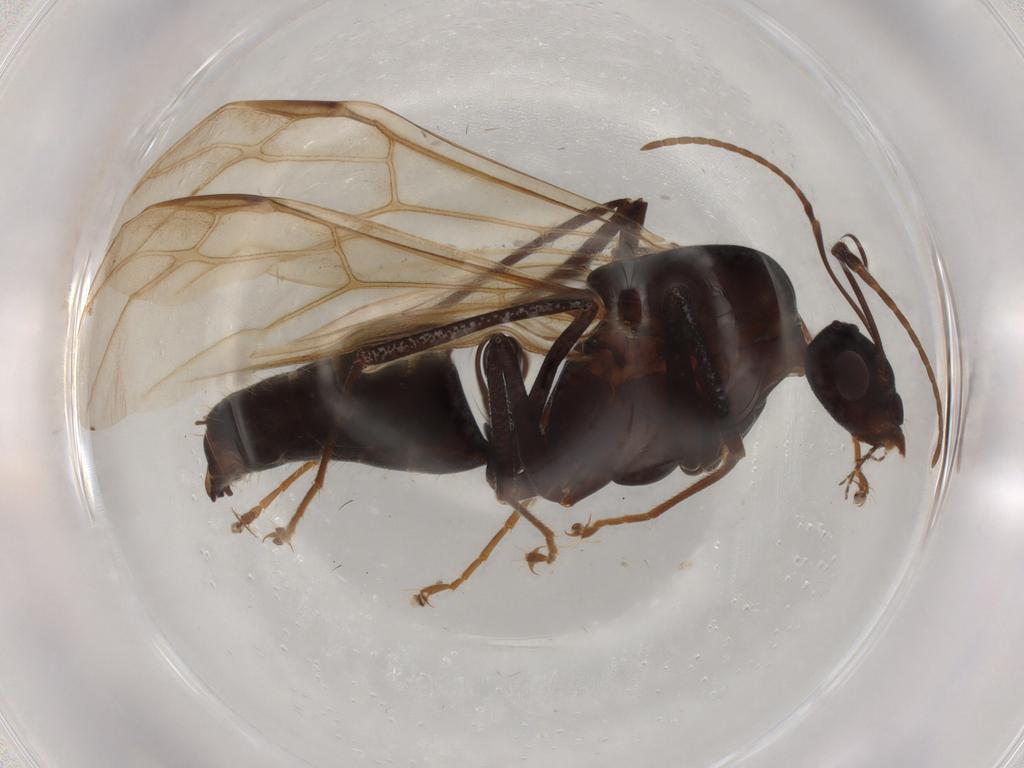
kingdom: Animalia
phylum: Arthropoda
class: Insecta
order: Hymenoptera
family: Formicidae
